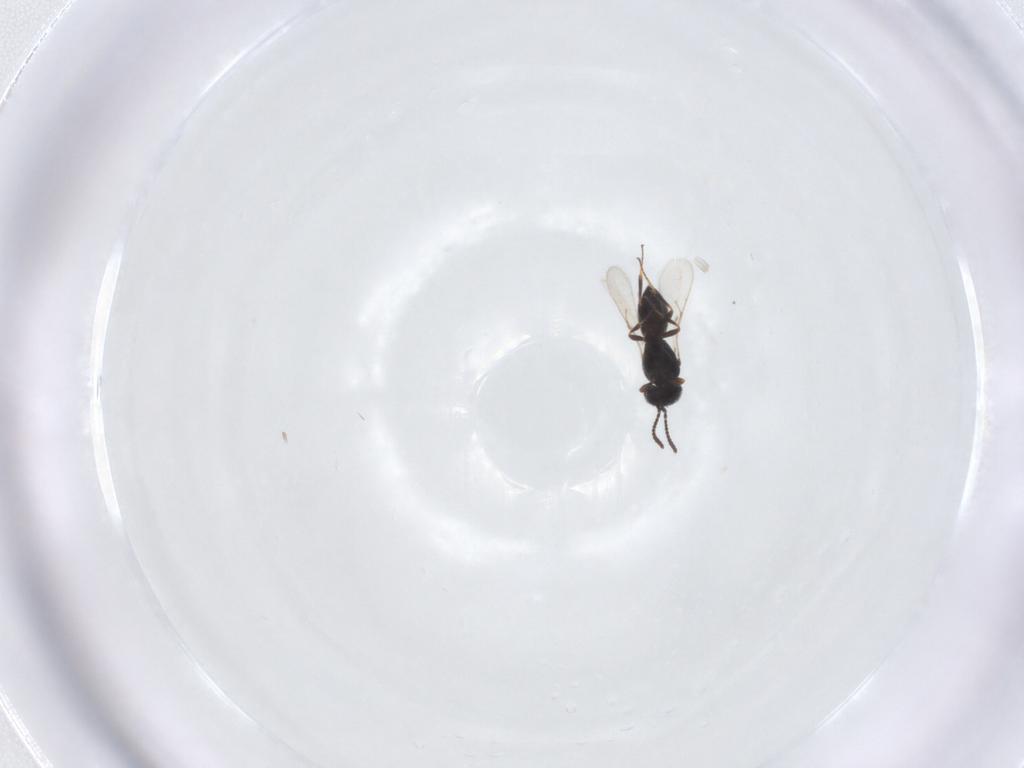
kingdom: Animalia
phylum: Arthropoda
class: Insecta
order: Hymenoptera
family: Scelionidae
